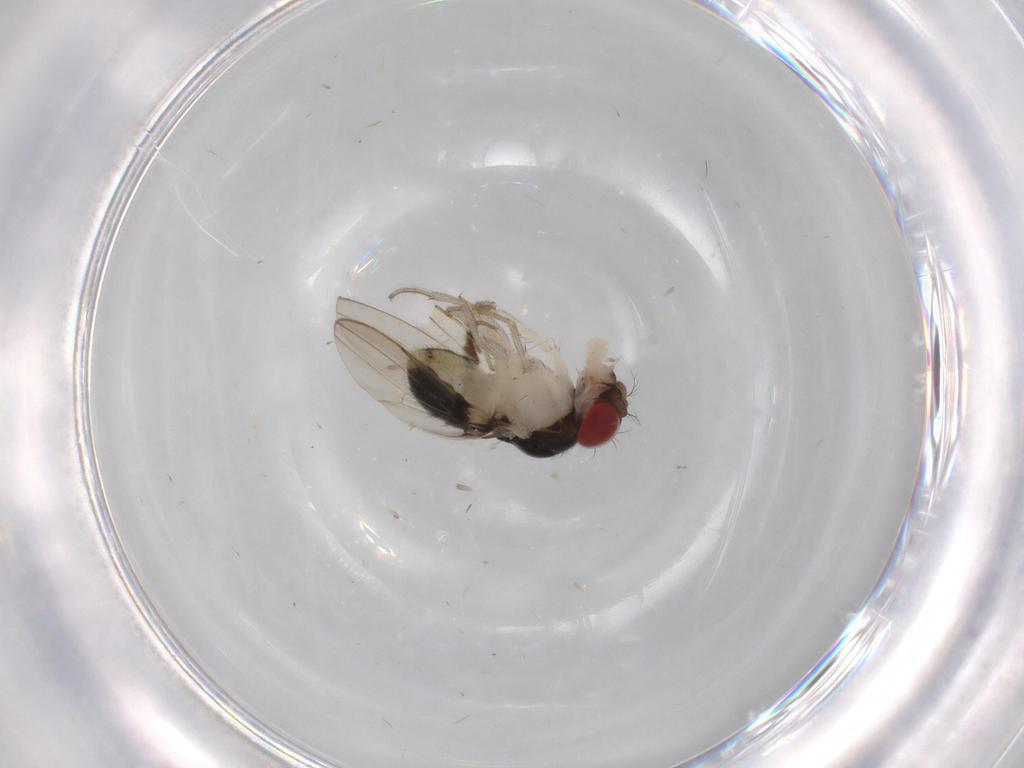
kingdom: Animalia
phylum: Arthropoda
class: Insecta
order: Diptera
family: Drosophilidae
